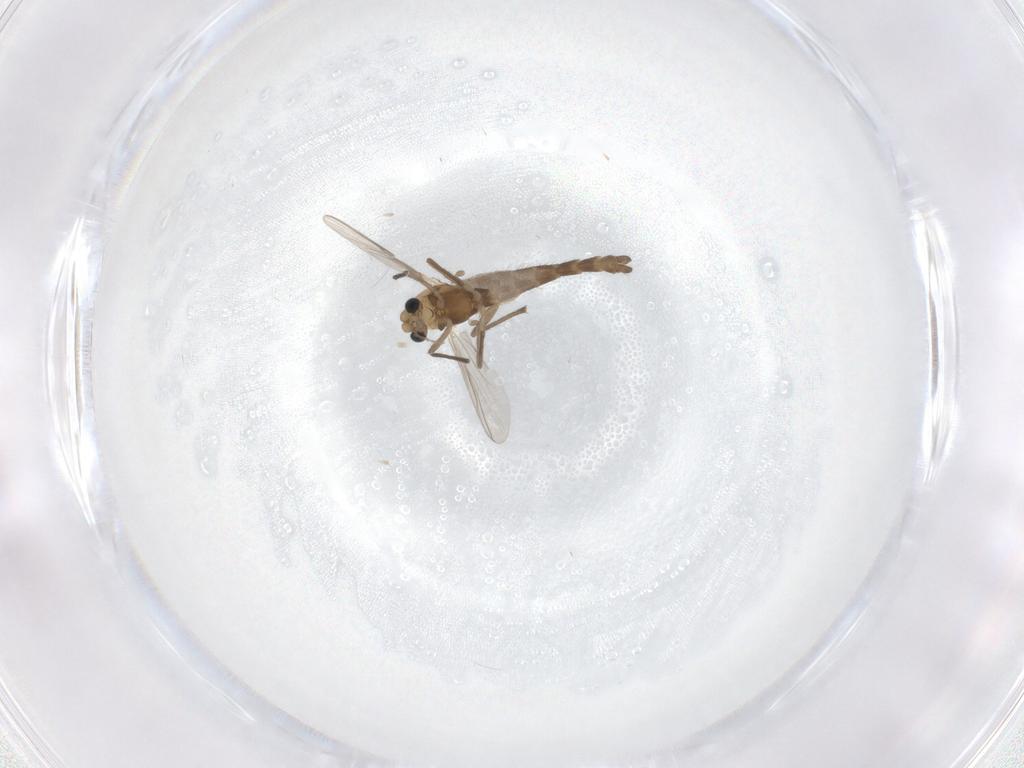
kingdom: Animalia
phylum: Arthropoda
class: Insecta
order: Diptera
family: Chironomidae
